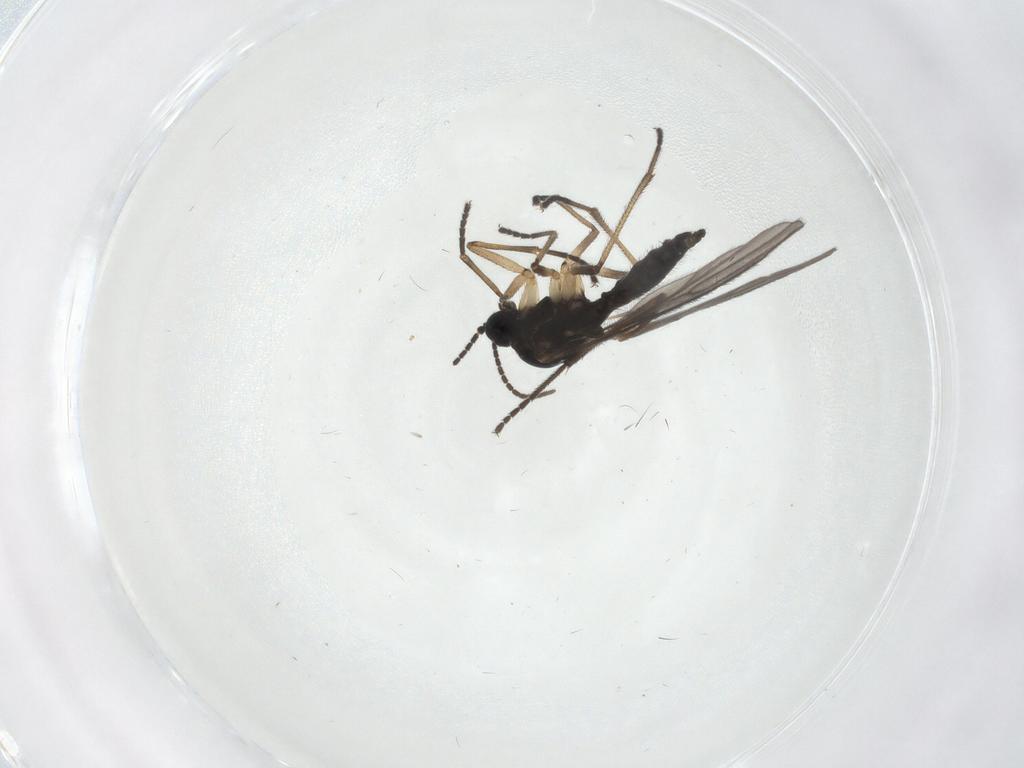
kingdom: Animalia
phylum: Arthropoda
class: Insecta
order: Diptera
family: Sciaridae
